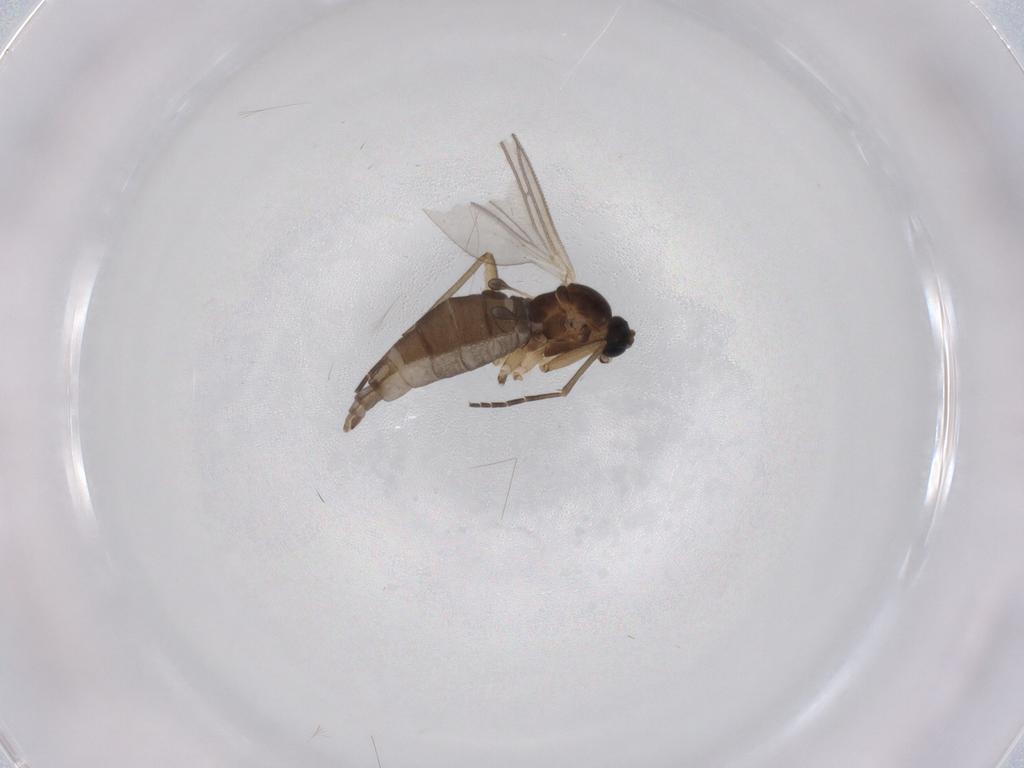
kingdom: Animalia
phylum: Arthropoda
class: Insecta
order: Diptera
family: Sciaridae
